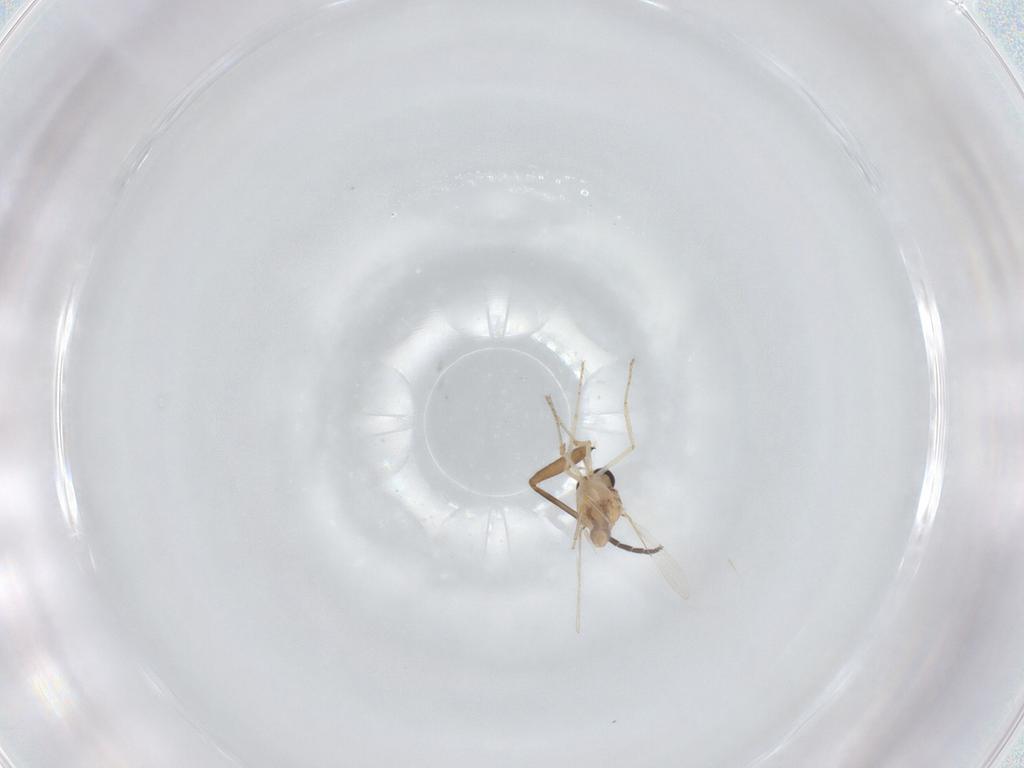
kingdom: Animalia
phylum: Arthropoda
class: Insecta
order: Diptera
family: Ceratopogonidae
